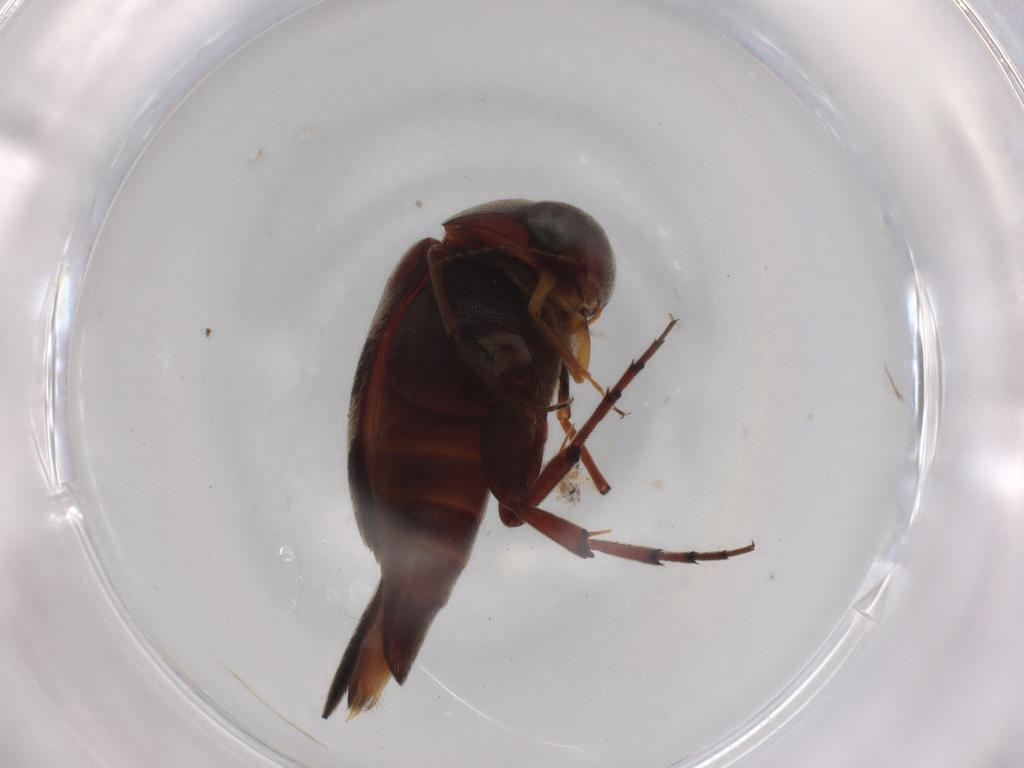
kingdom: Animalia
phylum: Arthropoda
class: Insecta
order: Coleoptera
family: Mordellidae
